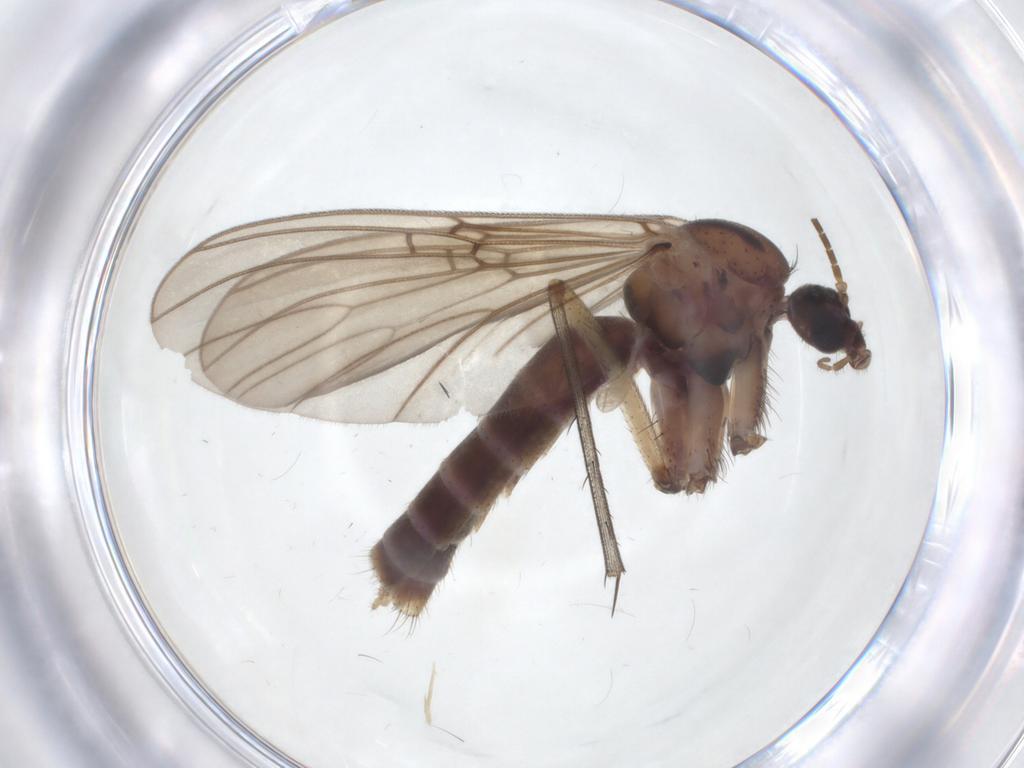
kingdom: Animalia
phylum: Arthropoda
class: Insecta
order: Diptera
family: Mycetophilidae
